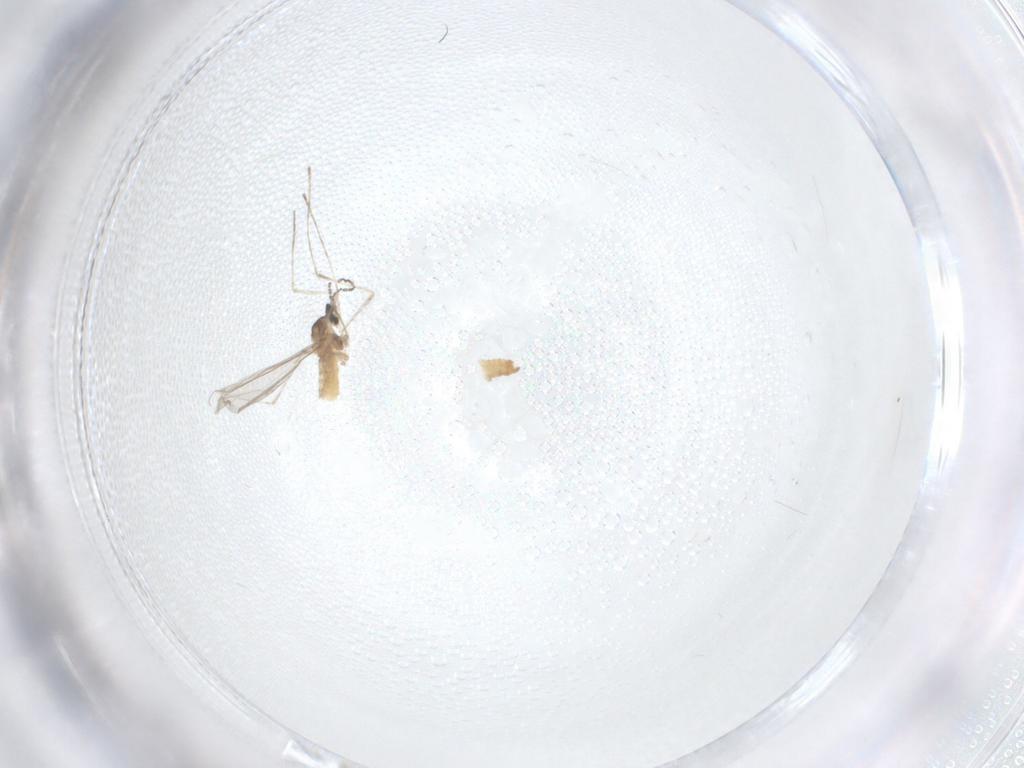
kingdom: Animalia
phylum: Arthropoda
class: Insecta
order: Diptera
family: Cecidomyiidae
